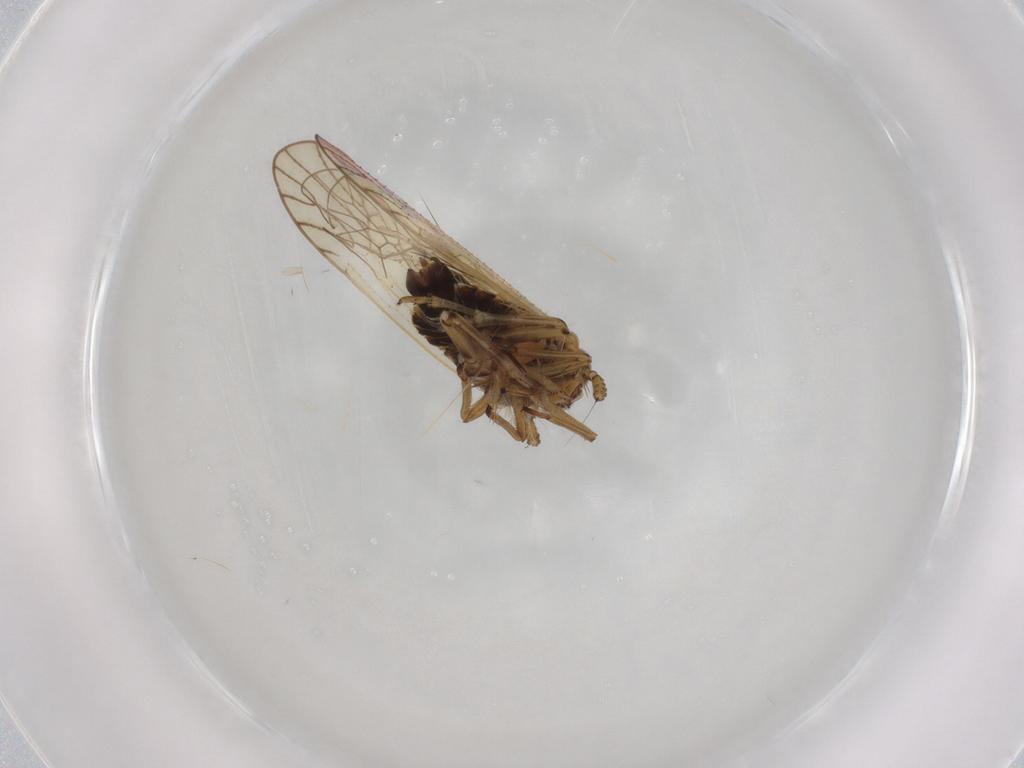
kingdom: Animalia
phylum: Arthropoda
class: Insecta
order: Hemiptera
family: Delphacidae
